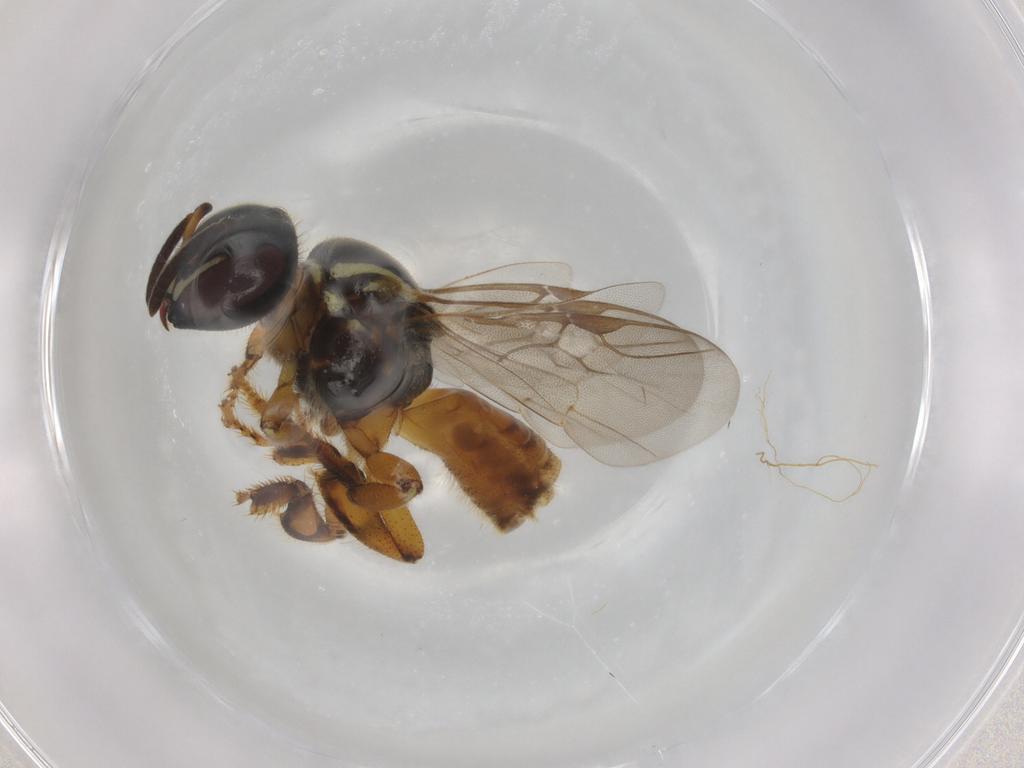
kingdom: Animalia
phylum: Arthropoda
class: Insecta
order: Hymenoptera
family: Apidae
